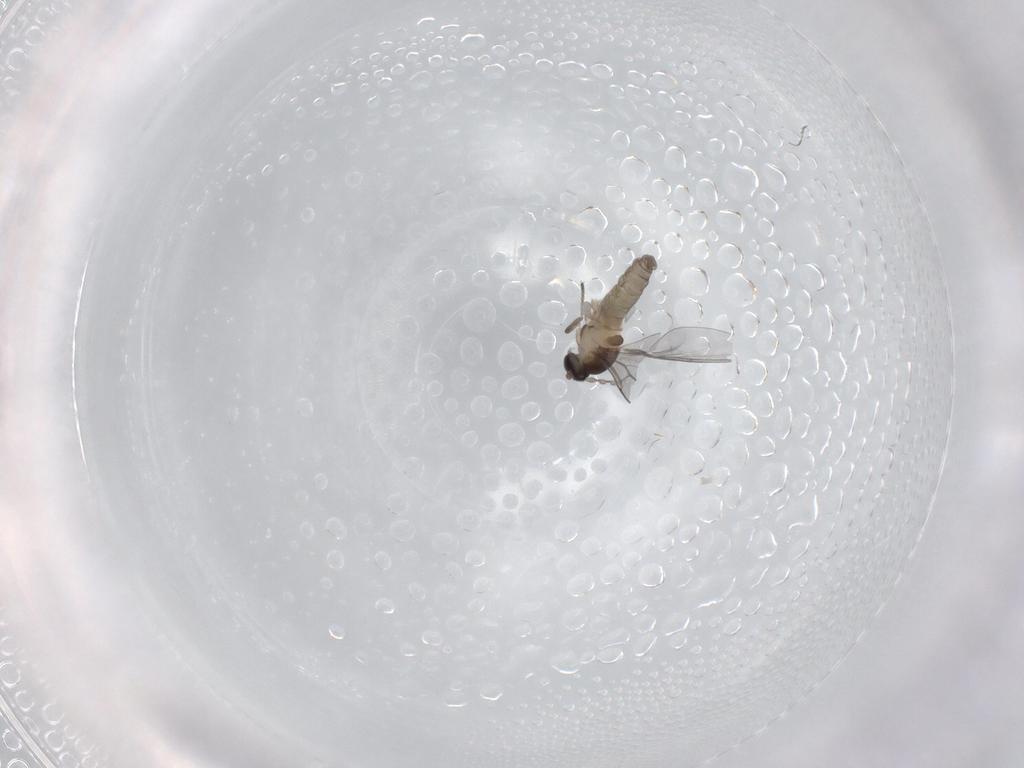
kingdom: Animalia
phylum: Arthropoda
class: Insecta
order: Diptera
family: Cecidomyiidae
